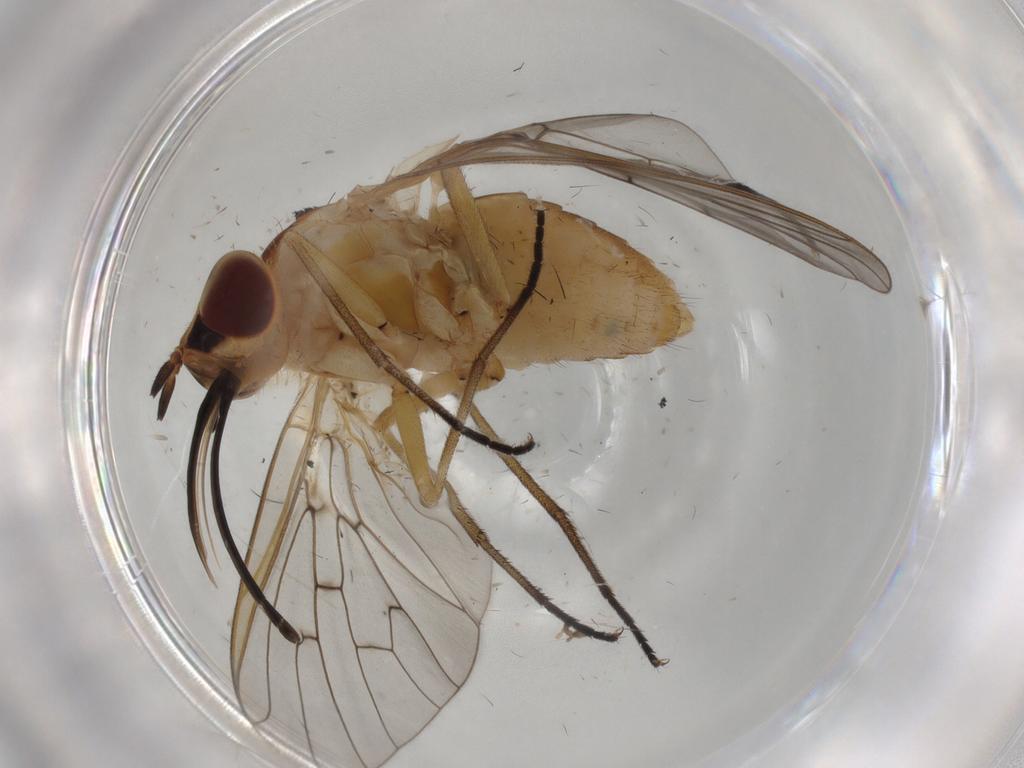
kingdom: Animalia
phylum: Arthropoda
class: Insecta
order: Diptera
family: Bombyliidae
